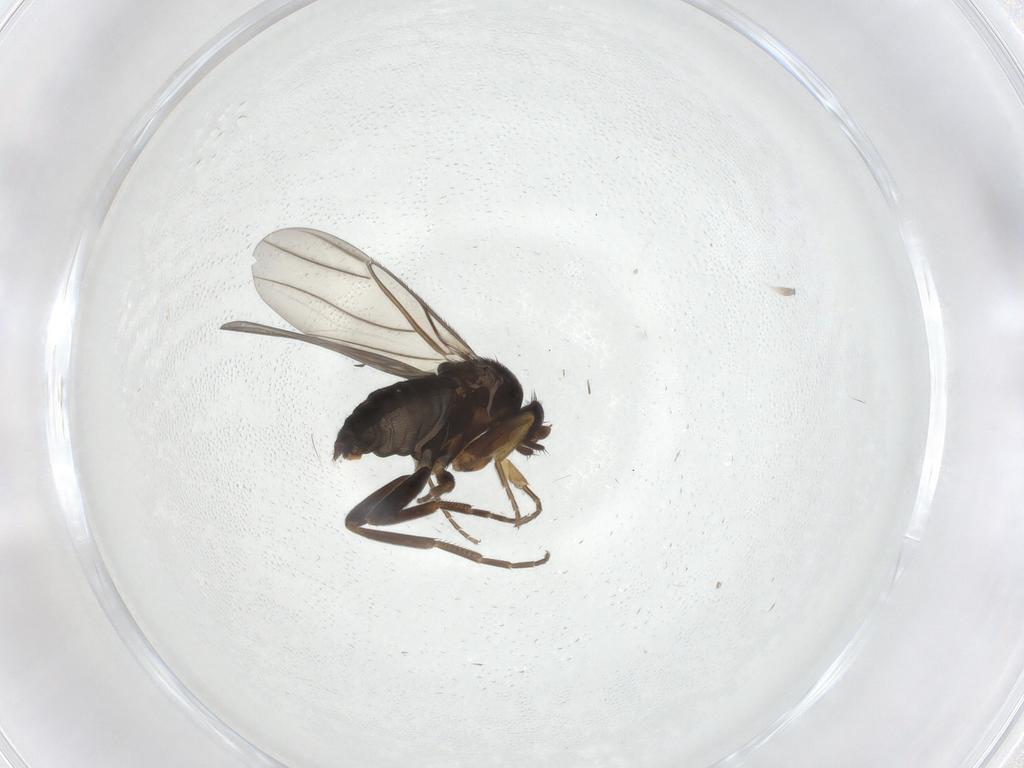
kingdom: Animalia
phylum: Arthropoda
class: Insecta
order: Diptera
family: Phoridae
